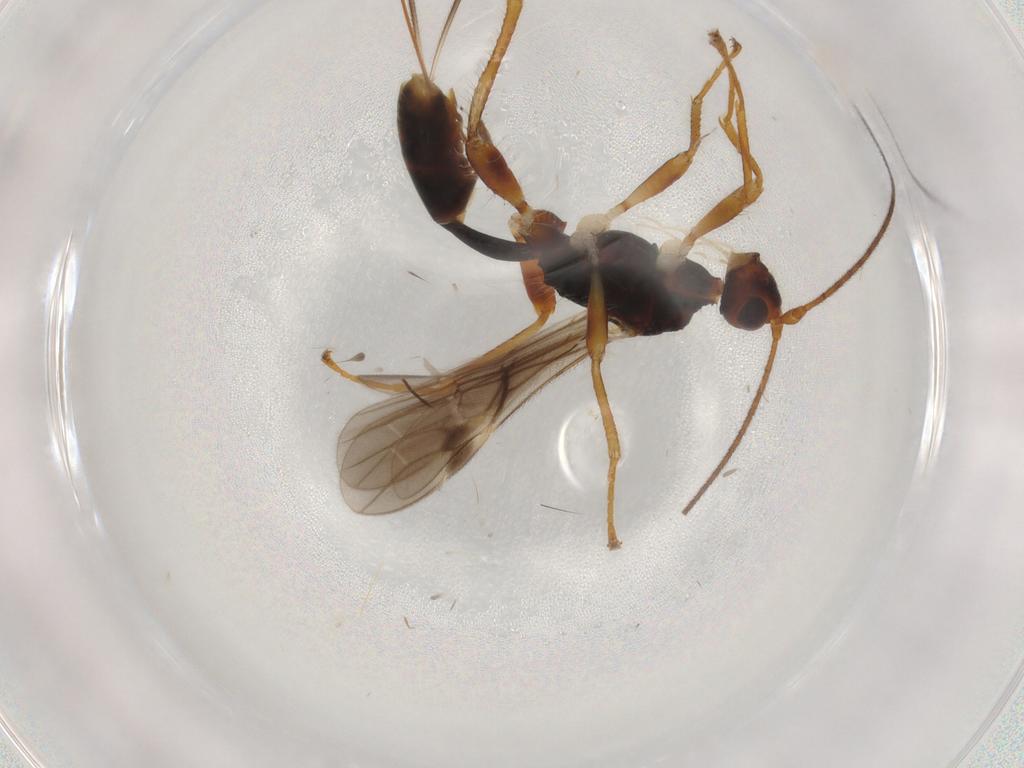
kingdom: Animalia
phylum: Arthropoda
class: Insecta
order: Hymenoptera
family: Braconidae
